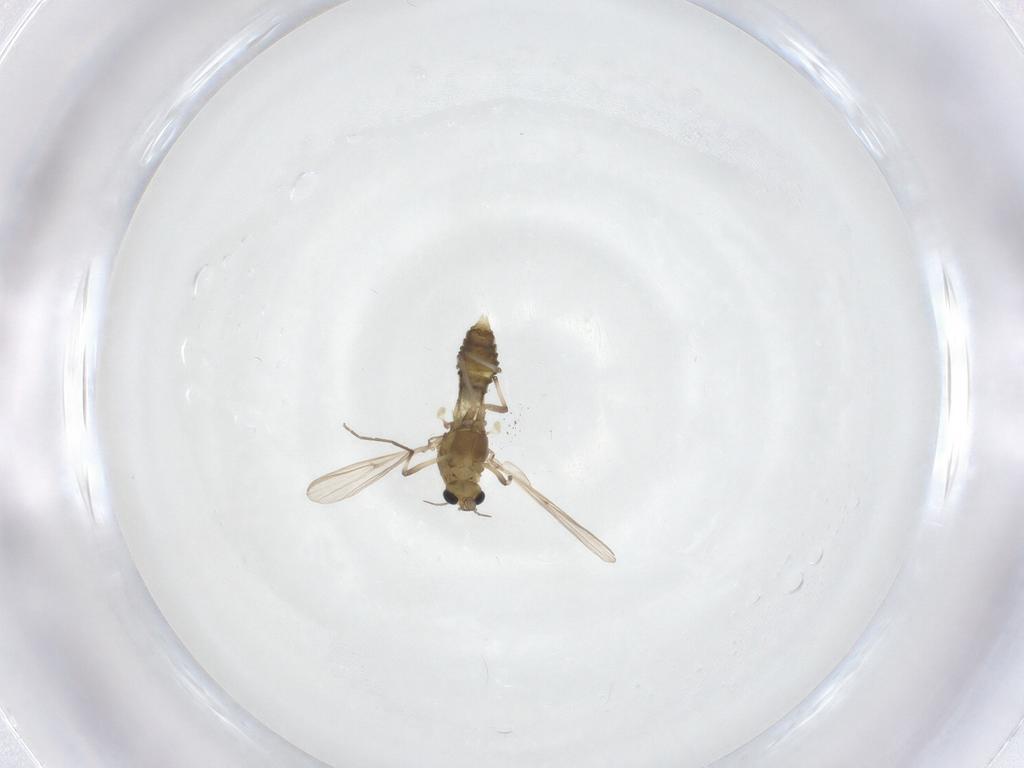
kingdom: Animalia
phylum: Arthropoda
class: Insecta
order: Diptera
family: Chironomidae
